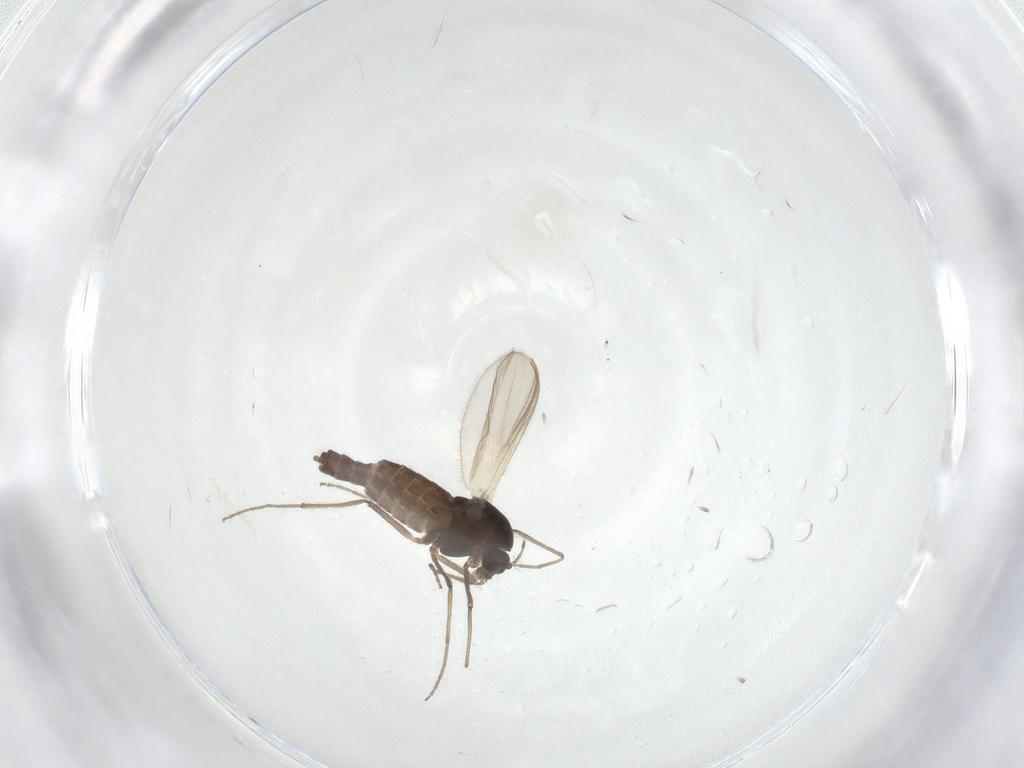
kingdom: Animalia
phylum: Arthropoda
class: Insecta
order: Diptera
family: Chironomidae
